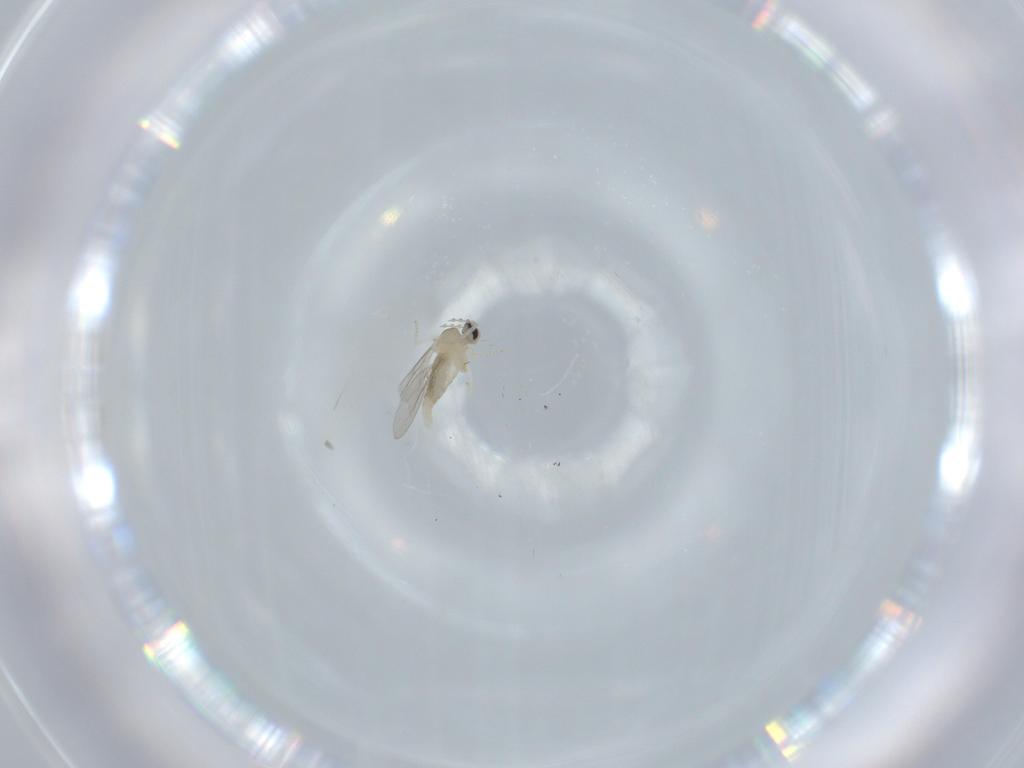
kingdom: Animalia
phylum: Arthropoda
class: Insecta
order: Diptera
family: Cecidomyiidae
